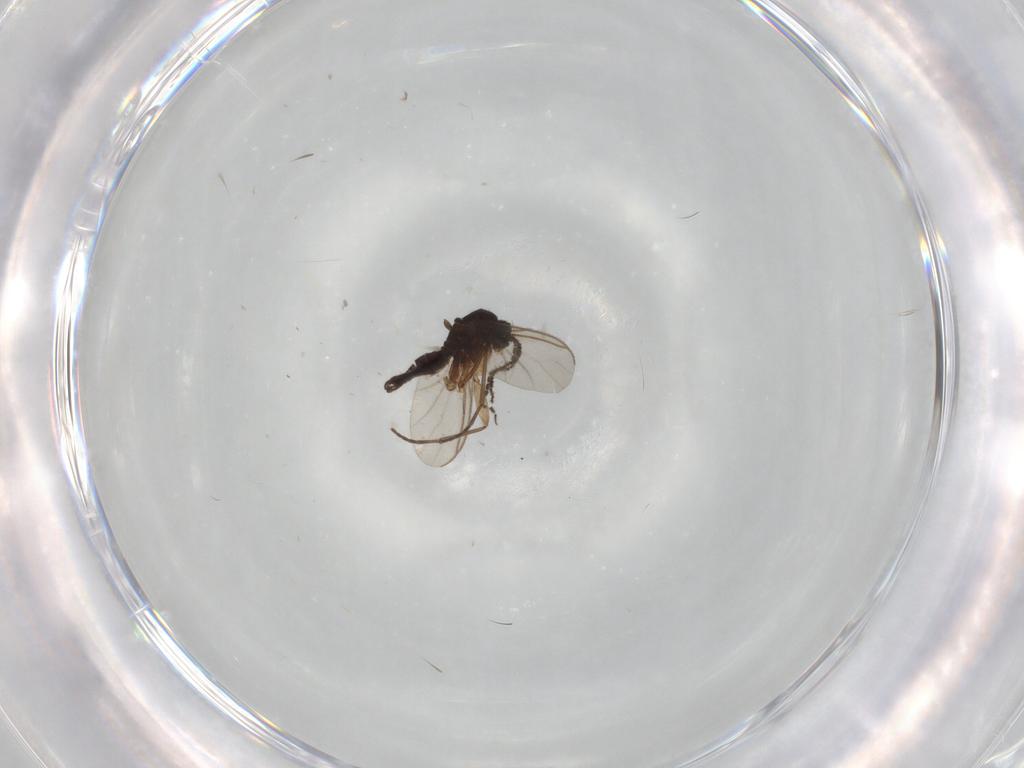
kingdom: Animalia
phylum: Arthropoda
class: Insecta
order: Diptera
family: Sciaridae
